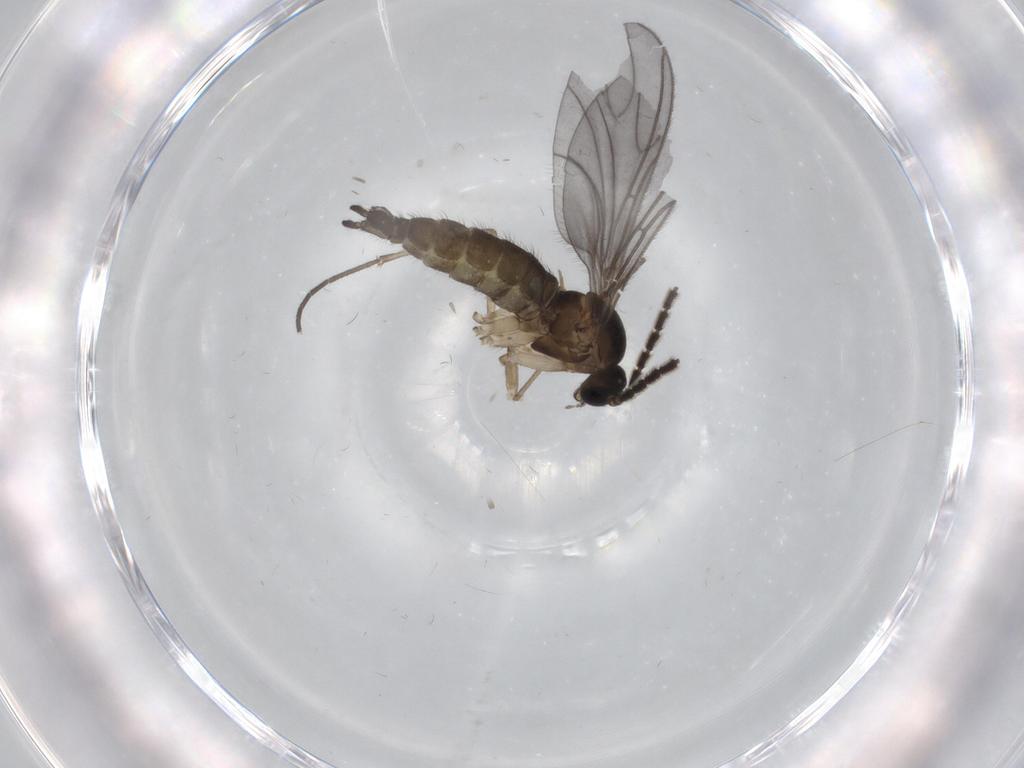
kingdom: Animalia
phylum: Arthropoda
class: Insecta
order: Diptera
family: Sciaridae
